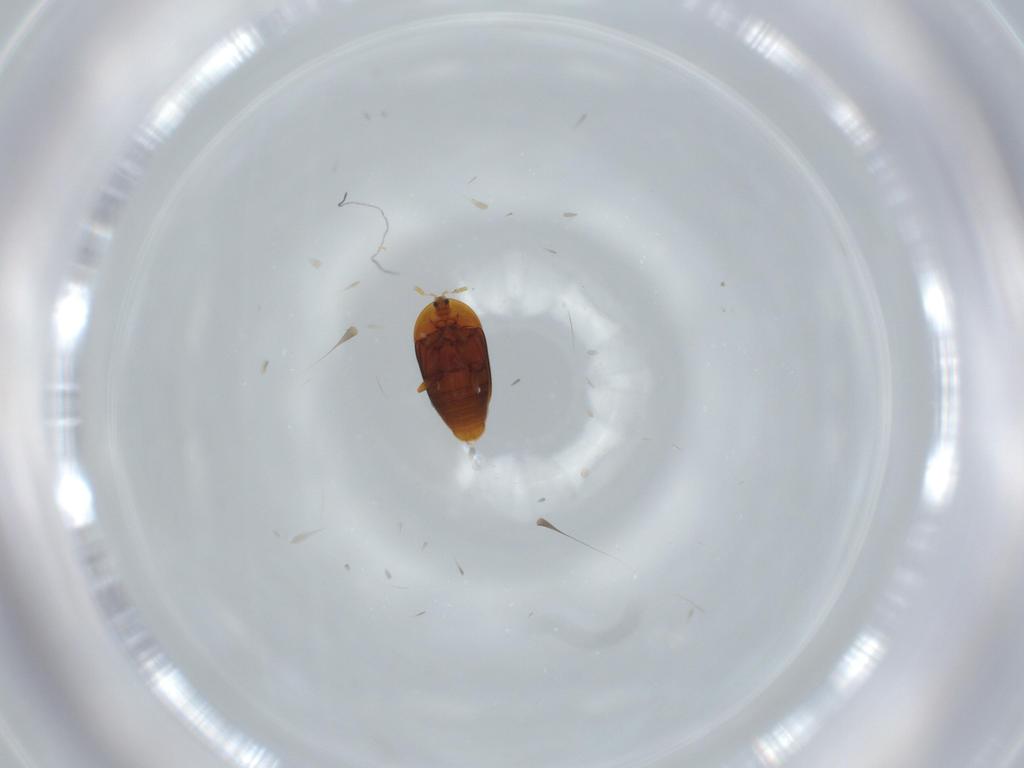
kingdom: Animalia
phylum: Arthropoda
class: Insecta
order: Coleoptera
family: Corylophidae
